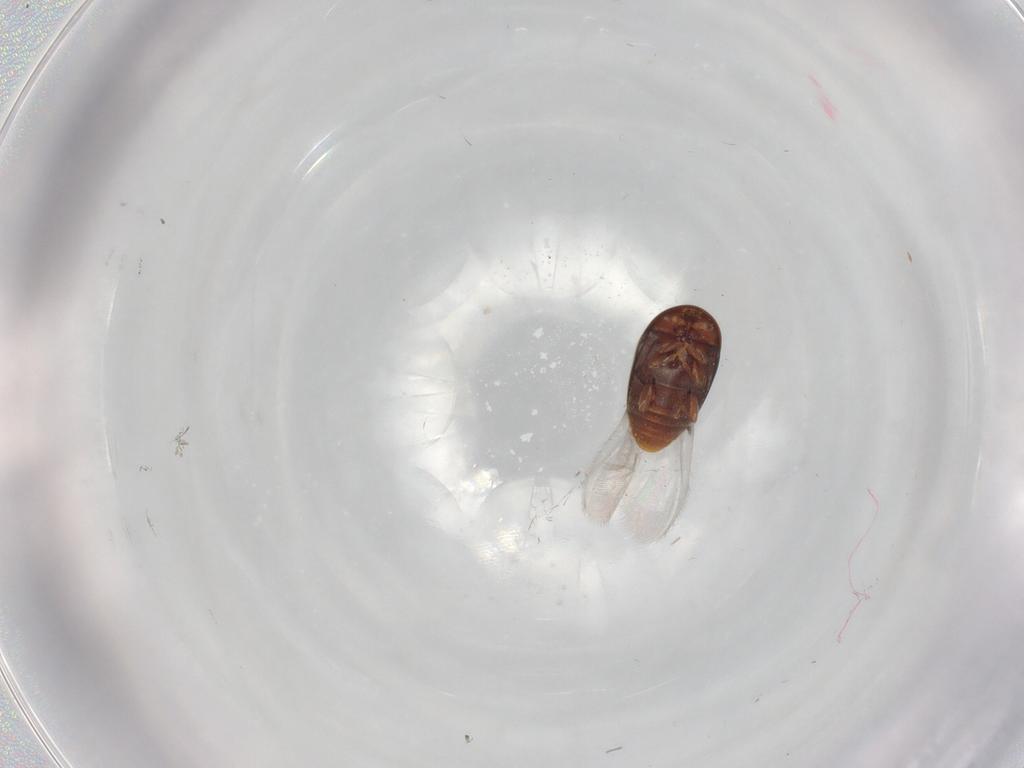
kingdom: Animalia
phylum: Arthropoda
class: Insecta
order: Coleoptera
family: Corylophidae
